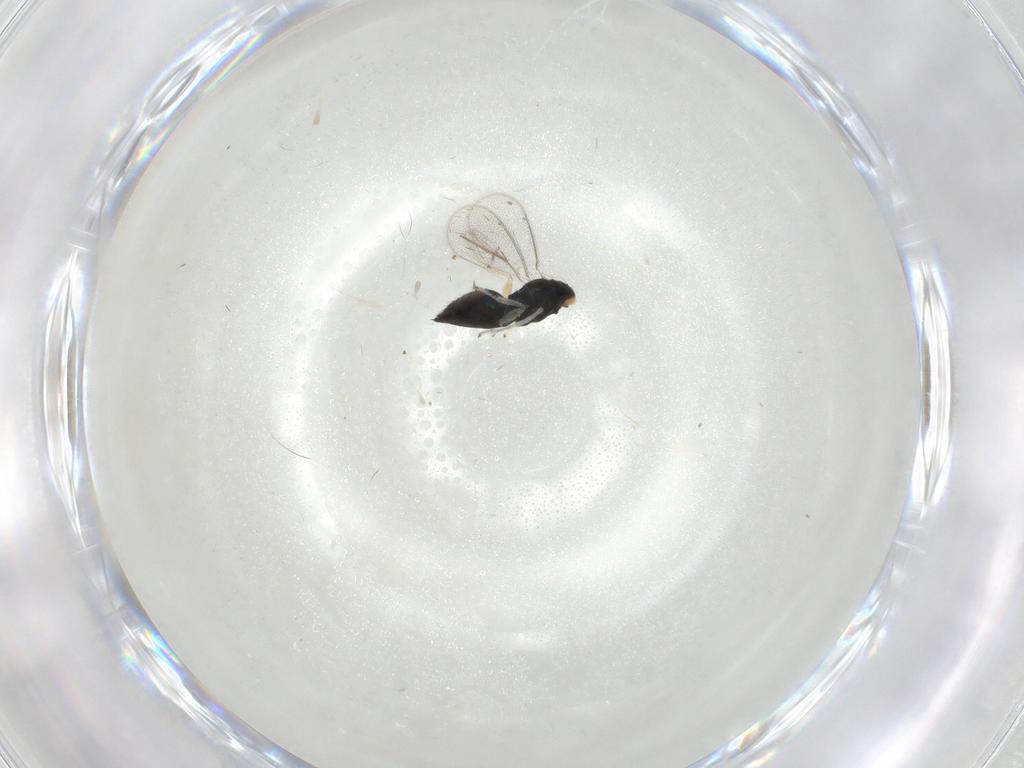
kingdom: Animalia
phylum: Arthropoda
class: Insecta
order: Hymenoptera
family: Eulophidae
